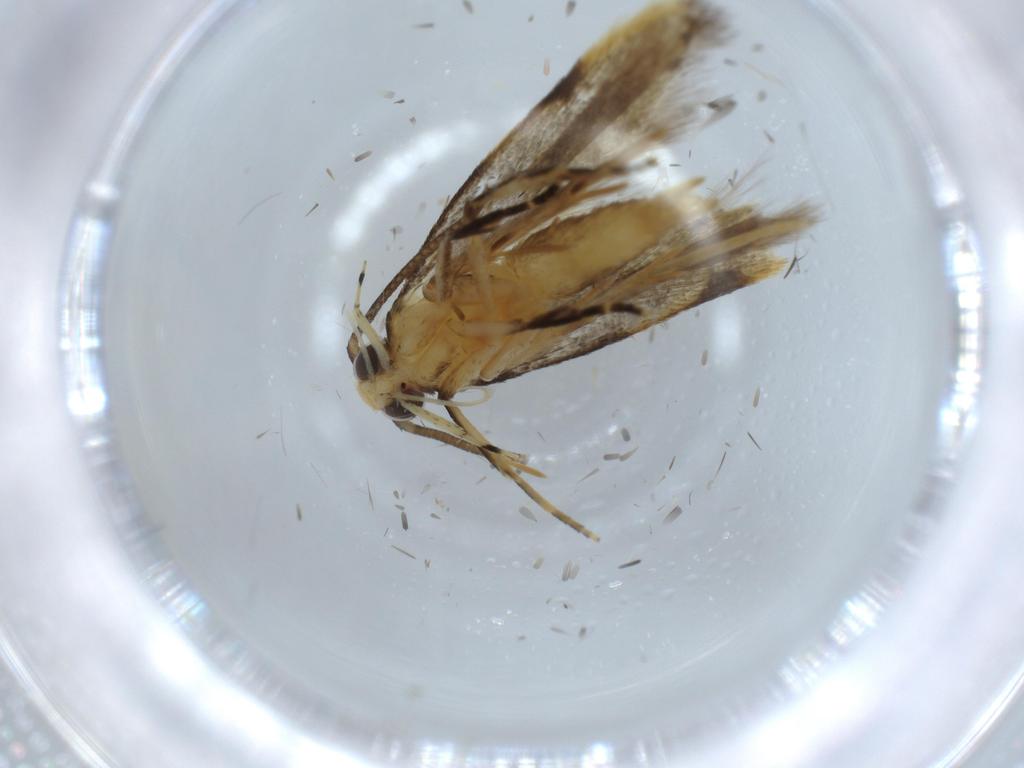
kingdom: Animalia
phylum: Arthropoda
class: Insecta
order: Lepidoptera
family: Autostichidae
